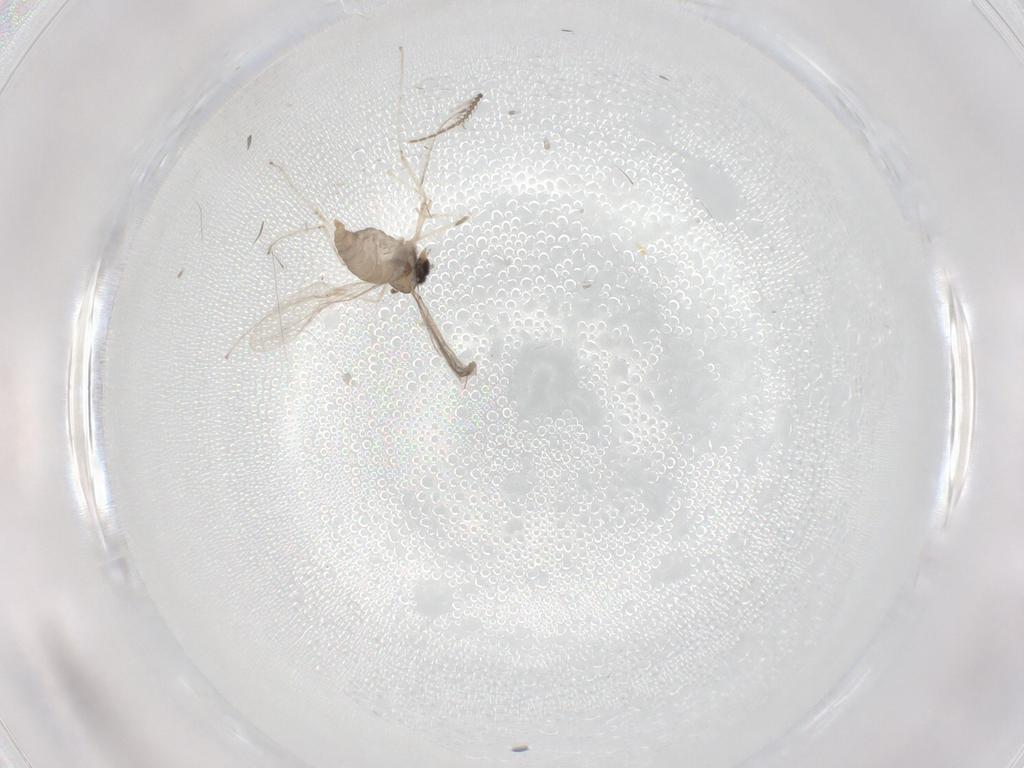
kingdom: Animalia
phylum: Arthropoda
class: Insecta
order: Diptera
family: Ceratopogonidae
